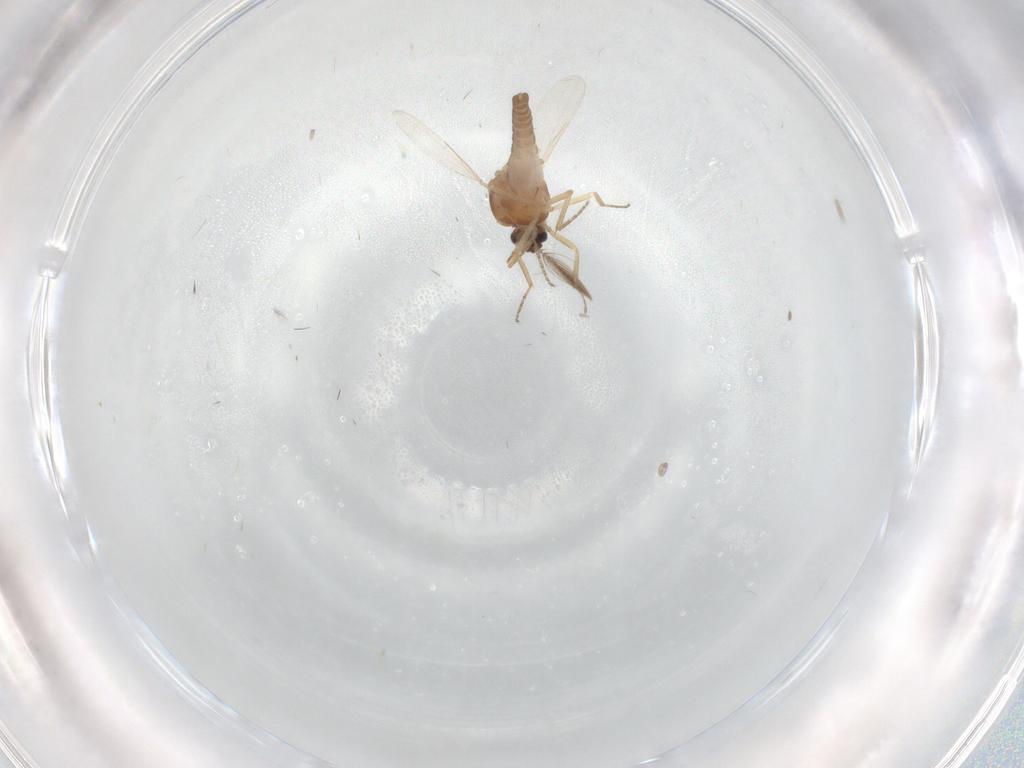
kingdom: Animalia
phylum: Arthropoda
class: Insecta
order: Diptera
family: Ceratopogonidae
